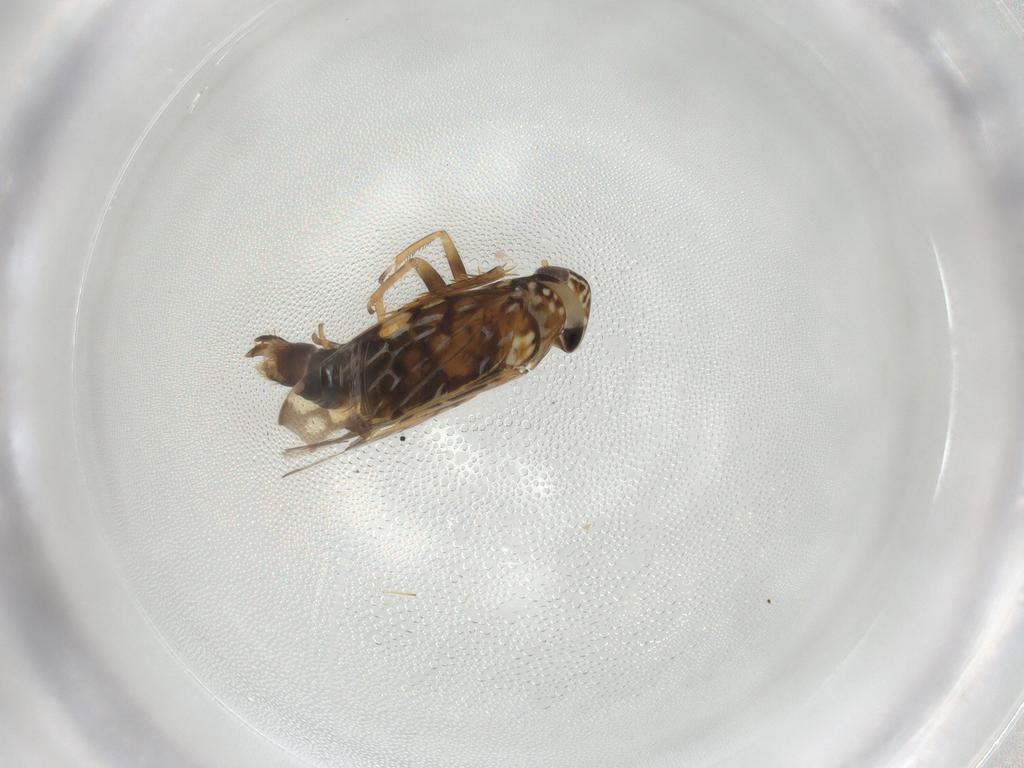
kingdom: Animalia
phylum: Arthropoda
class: Insecta
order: Hemiptera
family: Cicadellidae
